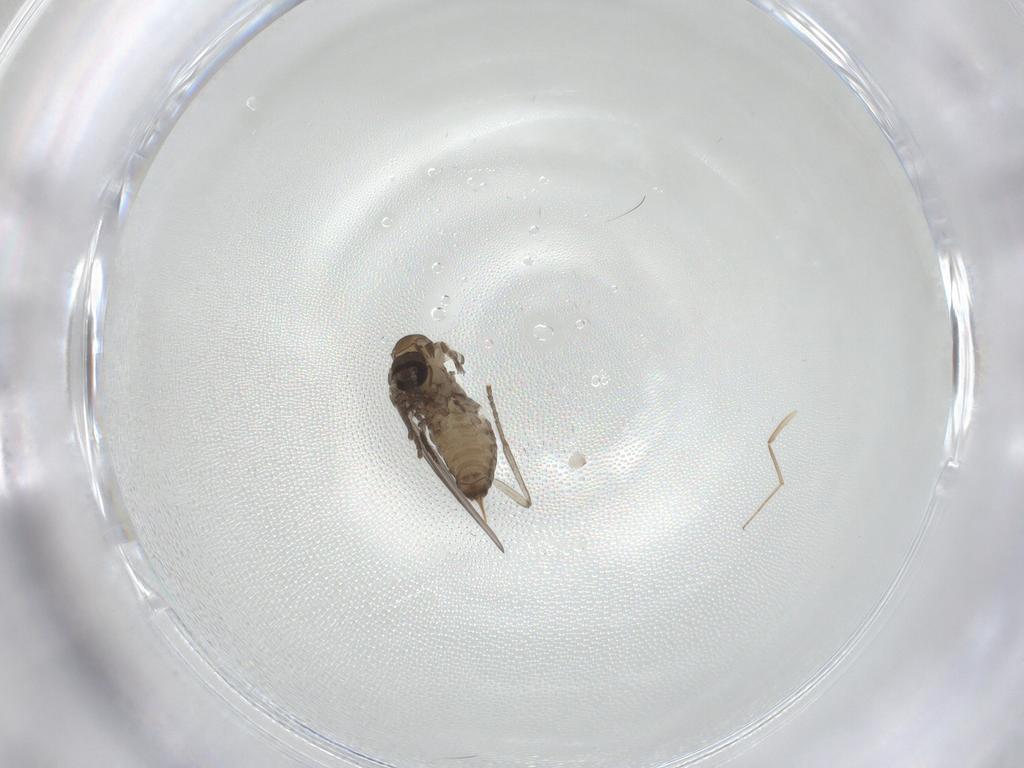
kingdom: Animalia
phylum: Arthropoda
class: Insecta
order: Diptera
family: Psychodidae
